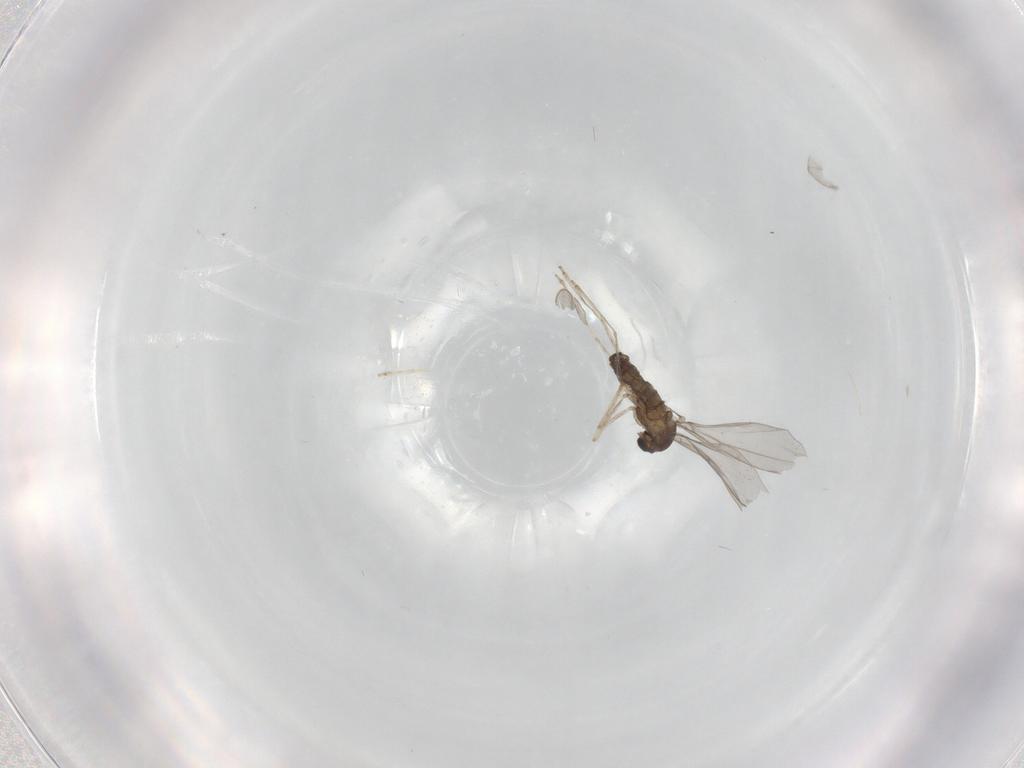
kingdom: Animalia
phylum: Arthropoda
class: Insecta
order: Diptera
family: Cecidomyiidae
